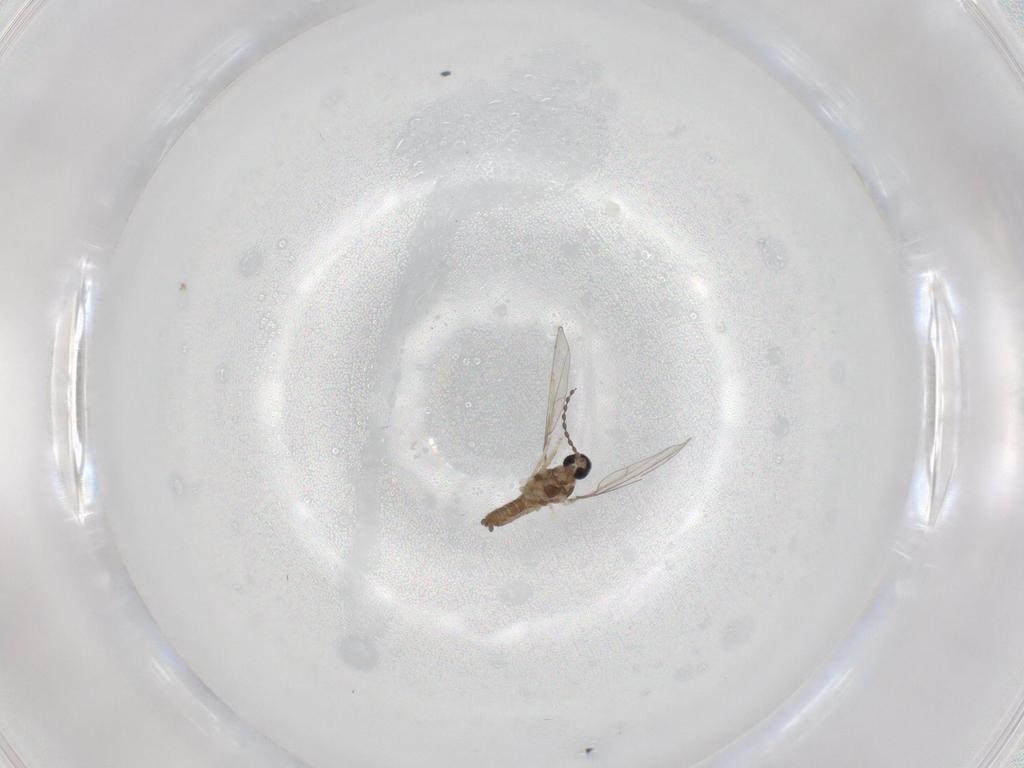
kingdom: Animalia
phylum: Arthropoda
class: Insecta
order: Diptera
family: Cecidomyiidae
